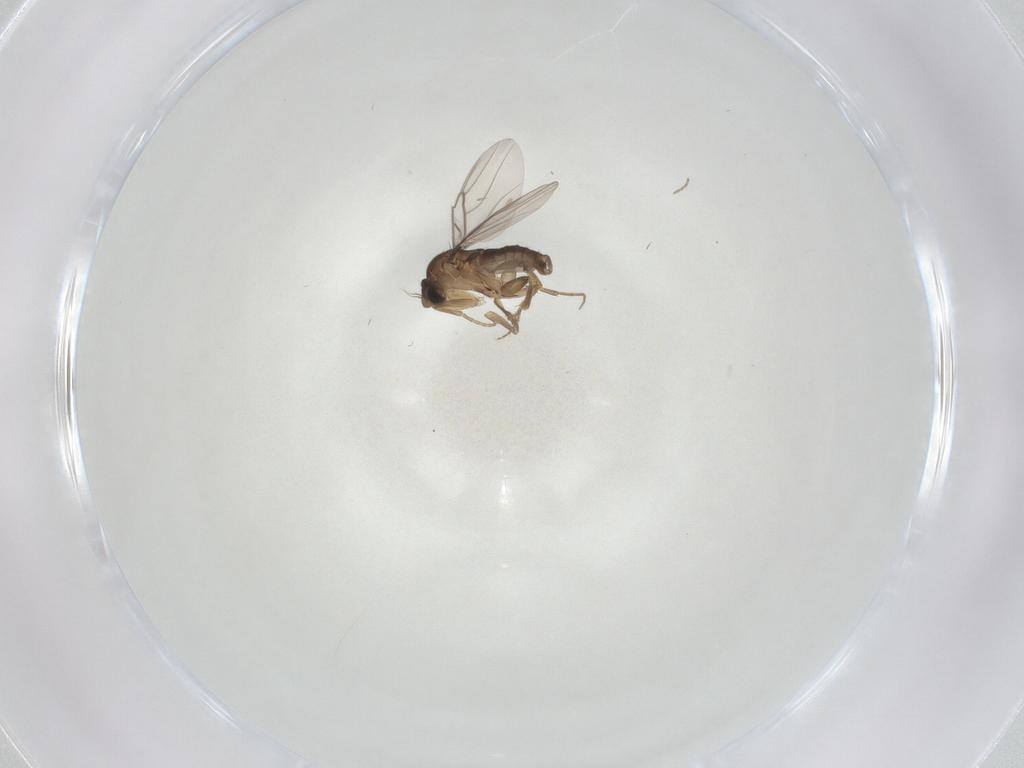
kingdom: Animalia
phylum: Arthropoda
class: Insecta
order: Diptera
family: Phoridae
